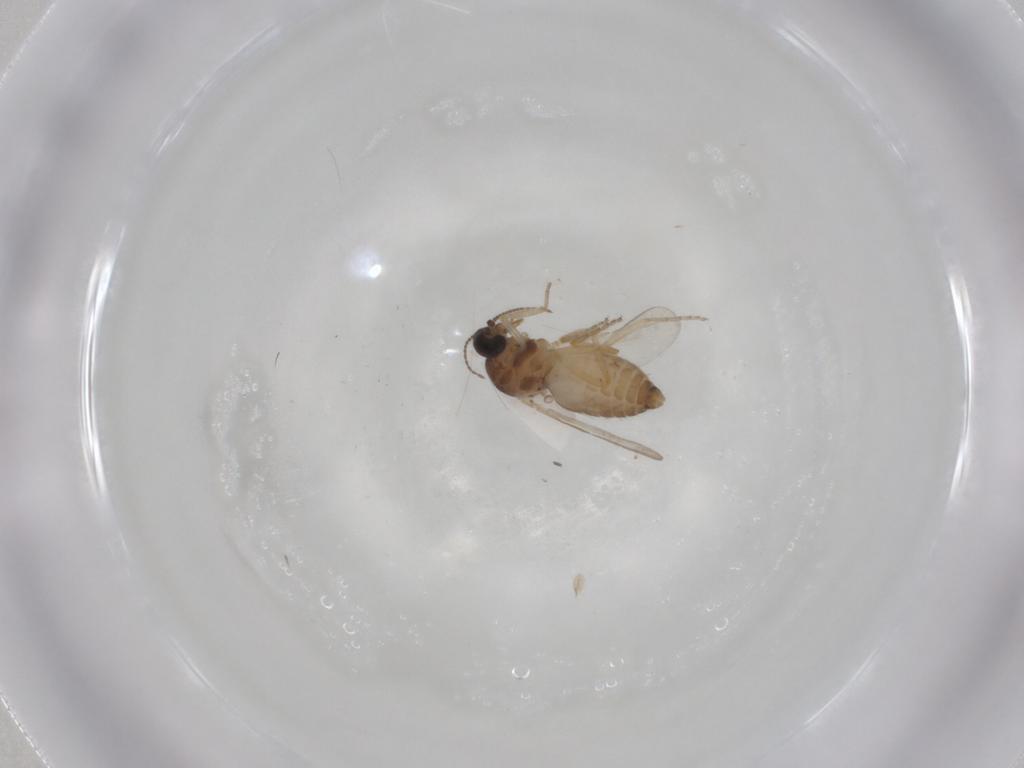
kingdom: Animalia
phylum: Arthropoda
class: Insecta
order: Diptera
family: Ceratopogonidae
